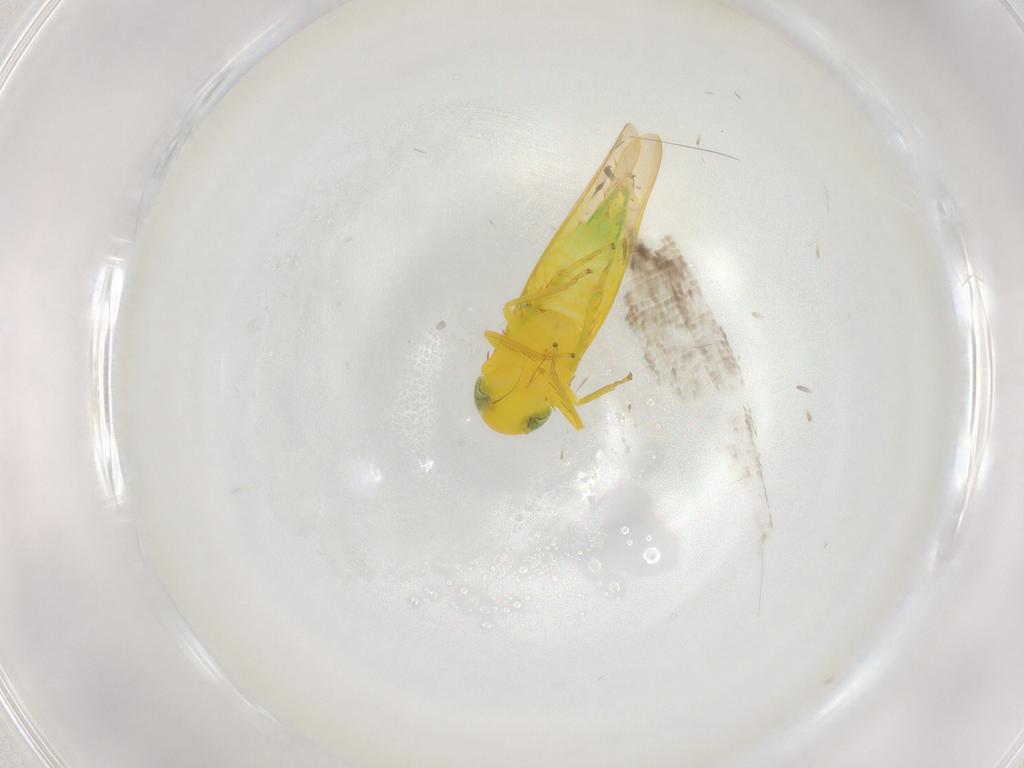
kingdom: Animalia
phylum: Arthropoda
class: Insecta
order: Hemiptera
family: Cicadellidae
